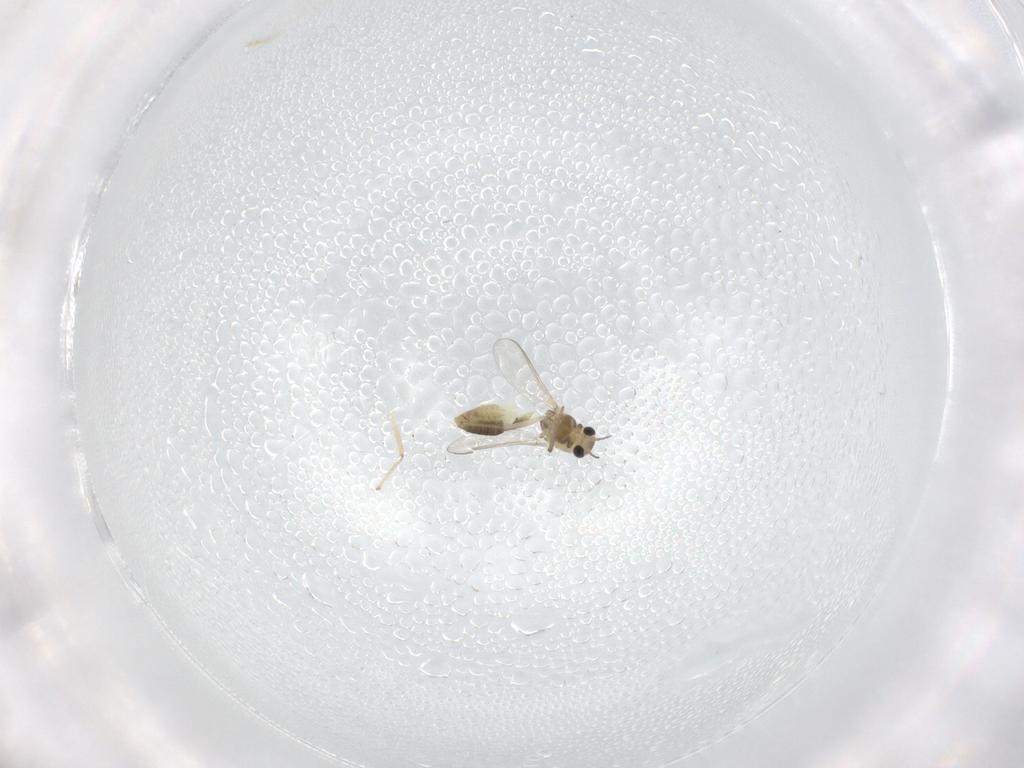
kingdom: Animalia
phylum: Arthropoda
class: Insecta
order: Diptera
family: Chironomidae
